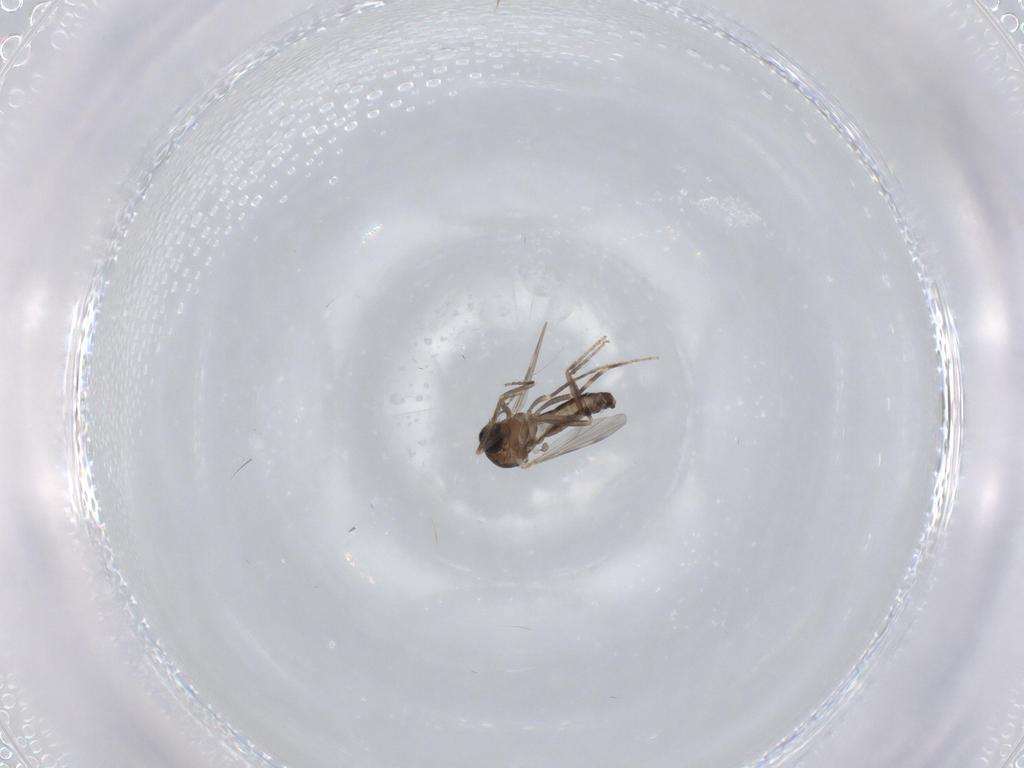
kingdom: Animalia
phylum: Arthropoda
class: Insecta
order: Diptera
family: Ceratopogonidae
